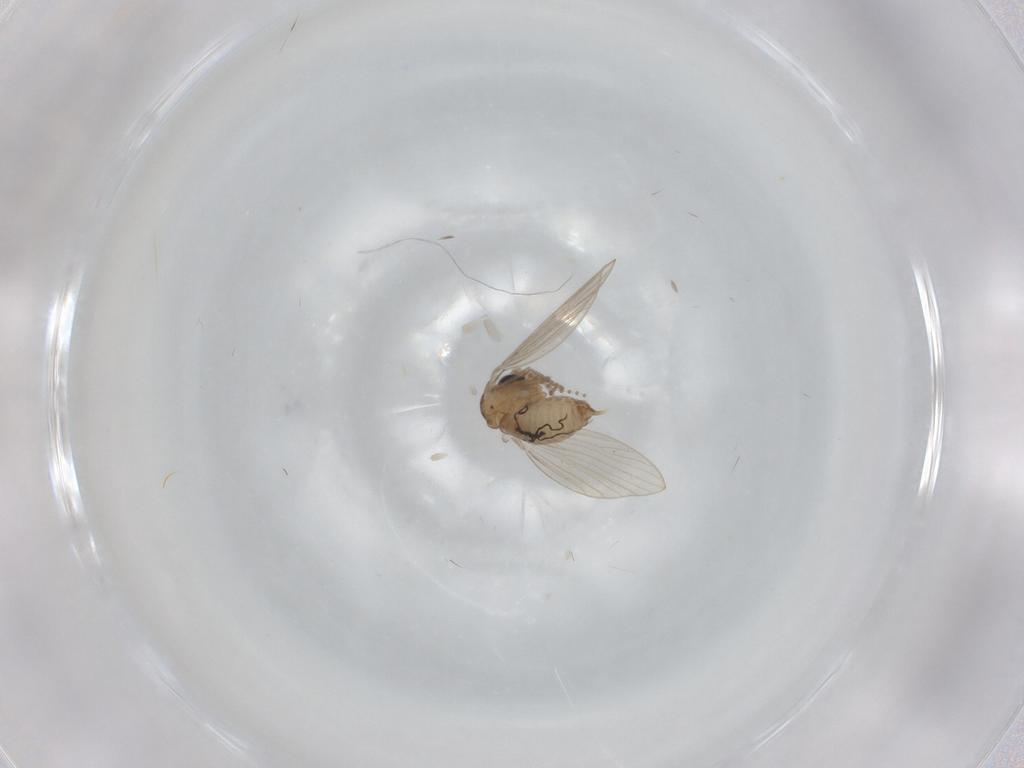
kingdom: Animalia
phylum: Arthropoda
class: Insecta
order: Diptera
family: Psychodidae
